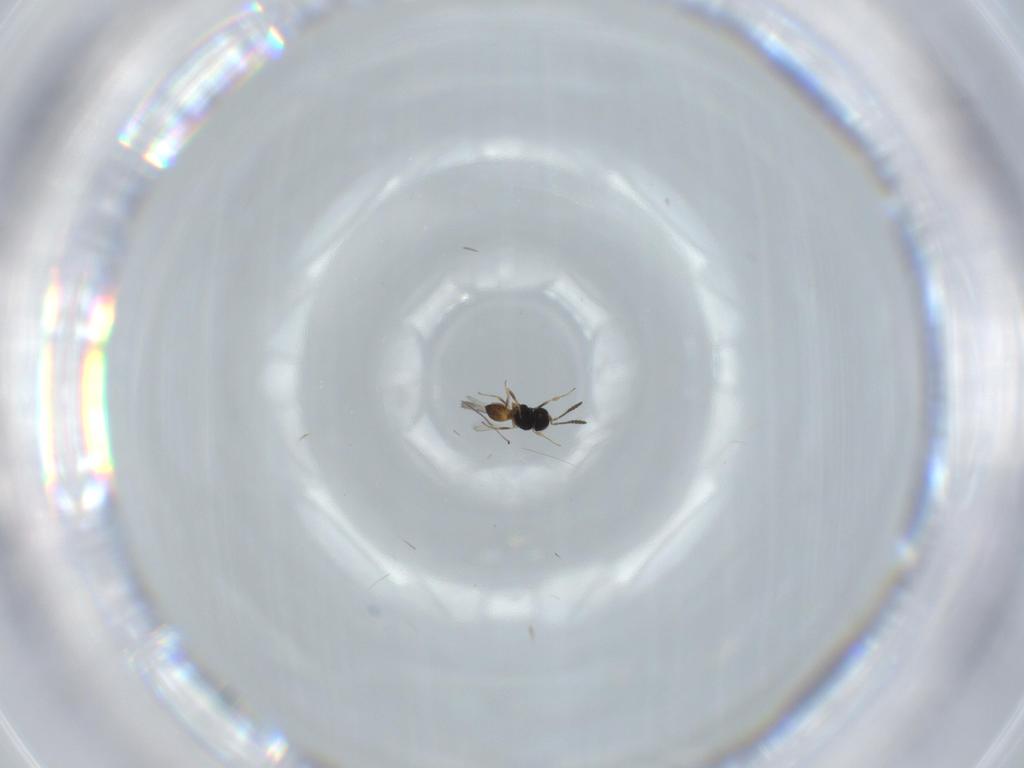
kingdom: Animalia
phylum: Arthropoda
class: Insecta
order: Hymenoptera
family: Scelionidae
